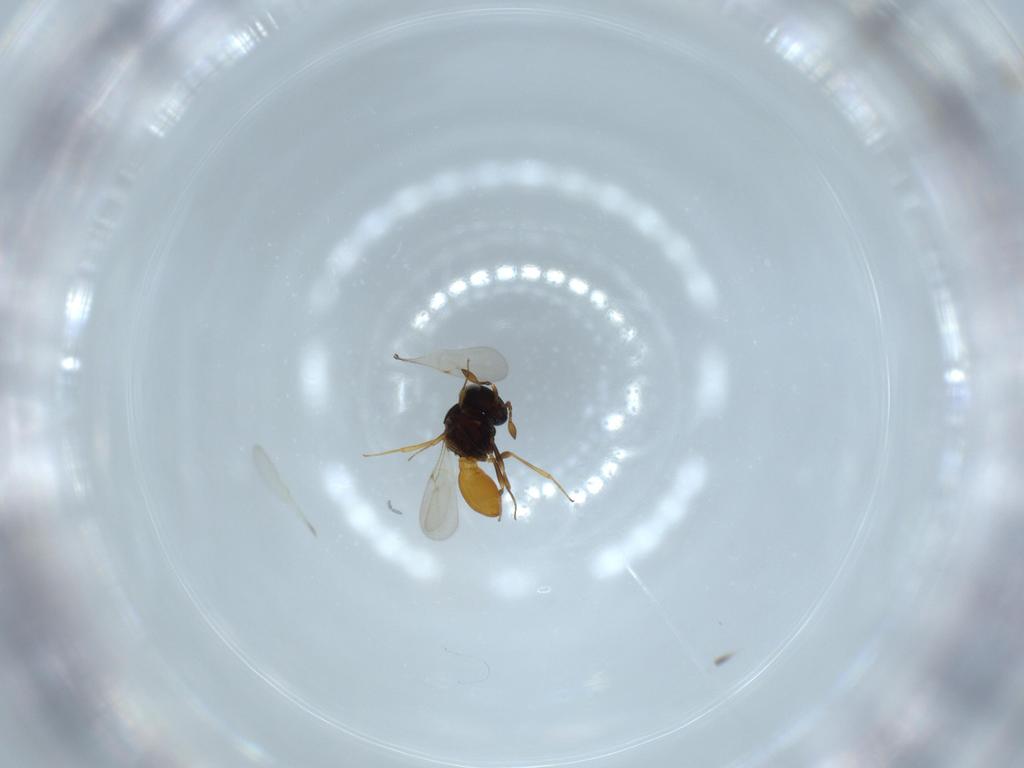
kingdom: Animalia
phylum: Arthropoda
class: Insecta
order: Hymenoptera
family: Scelionidae
